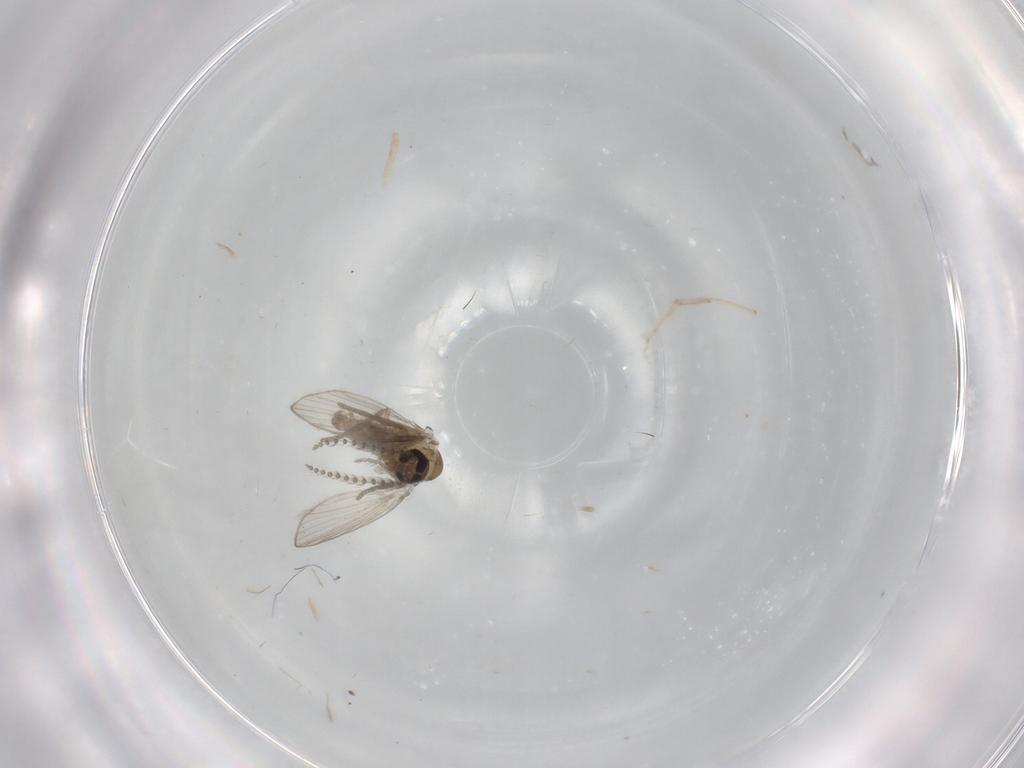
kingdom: Animalia
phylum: Arthropoda
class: Insecta
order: Diptera
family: Psychodidae
